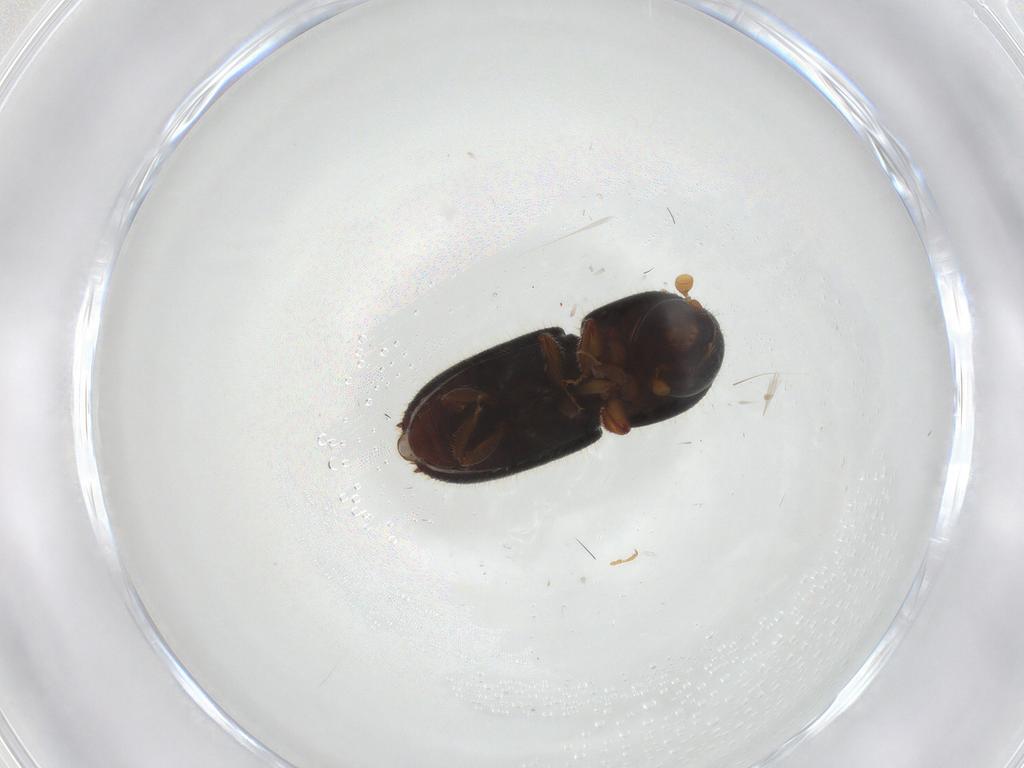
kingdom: Animalia
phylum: Arthropoda
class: Insecta
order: Coleoptera
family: Curculionidae
